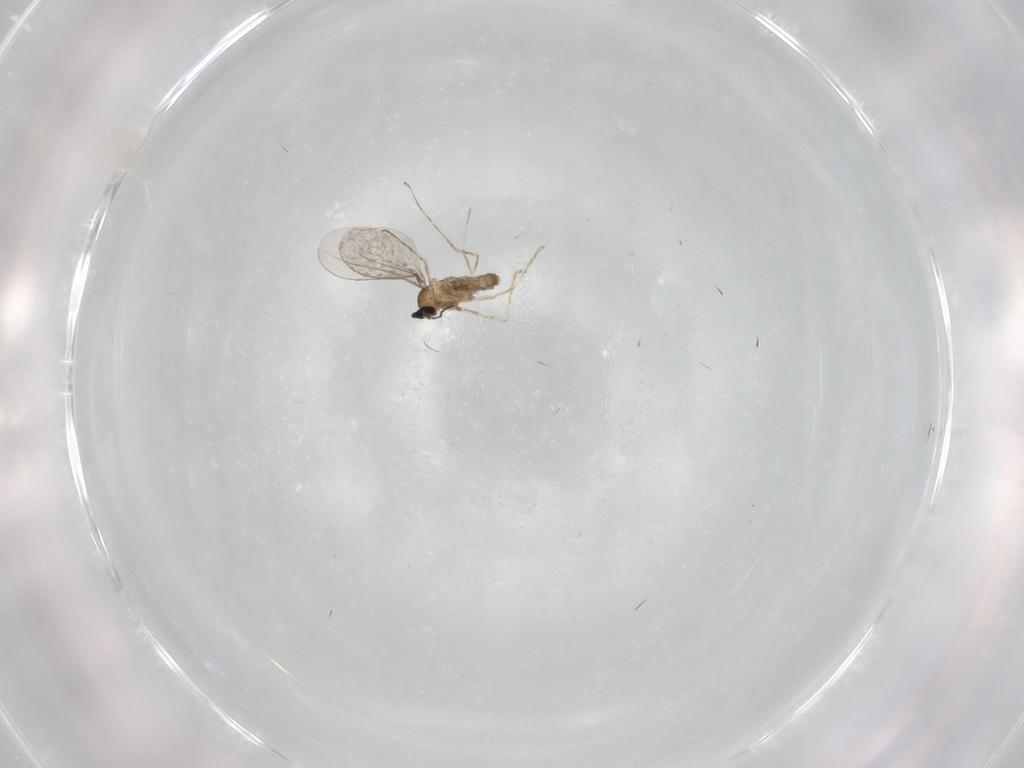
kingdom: Animalia
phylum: Arthropoda
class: Insecta
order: Diptera
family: Cecidomyiidae
